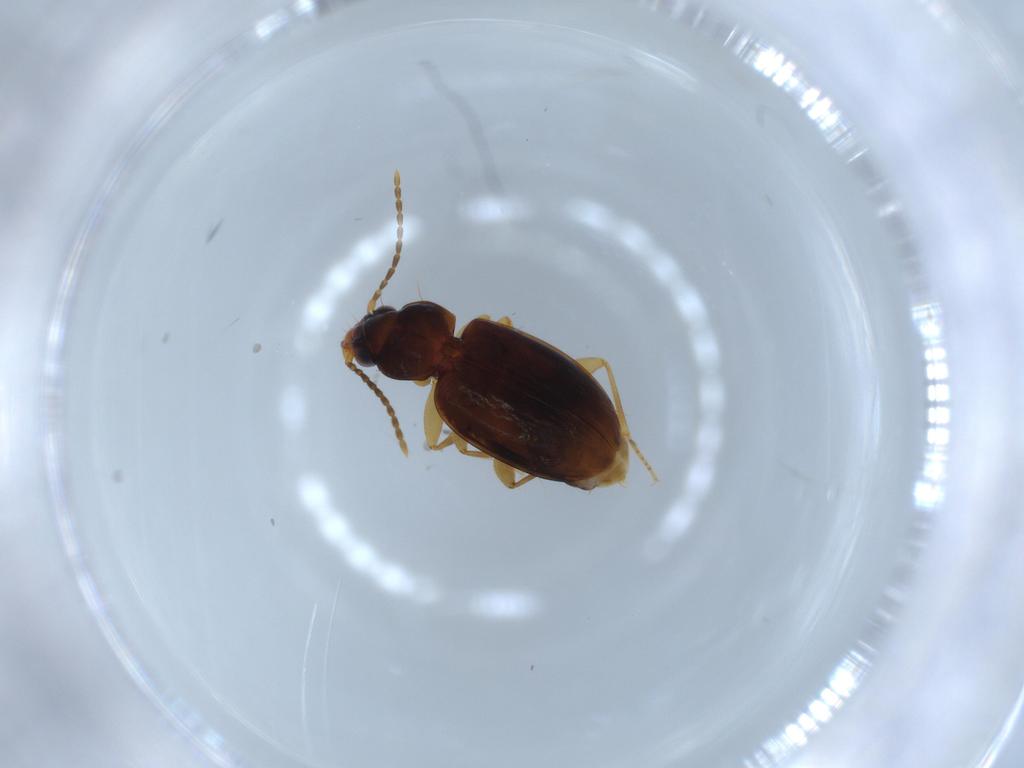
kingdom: Animalia
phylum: Arthropoda
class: Insecta
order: Coleoptera
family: Carabidae
